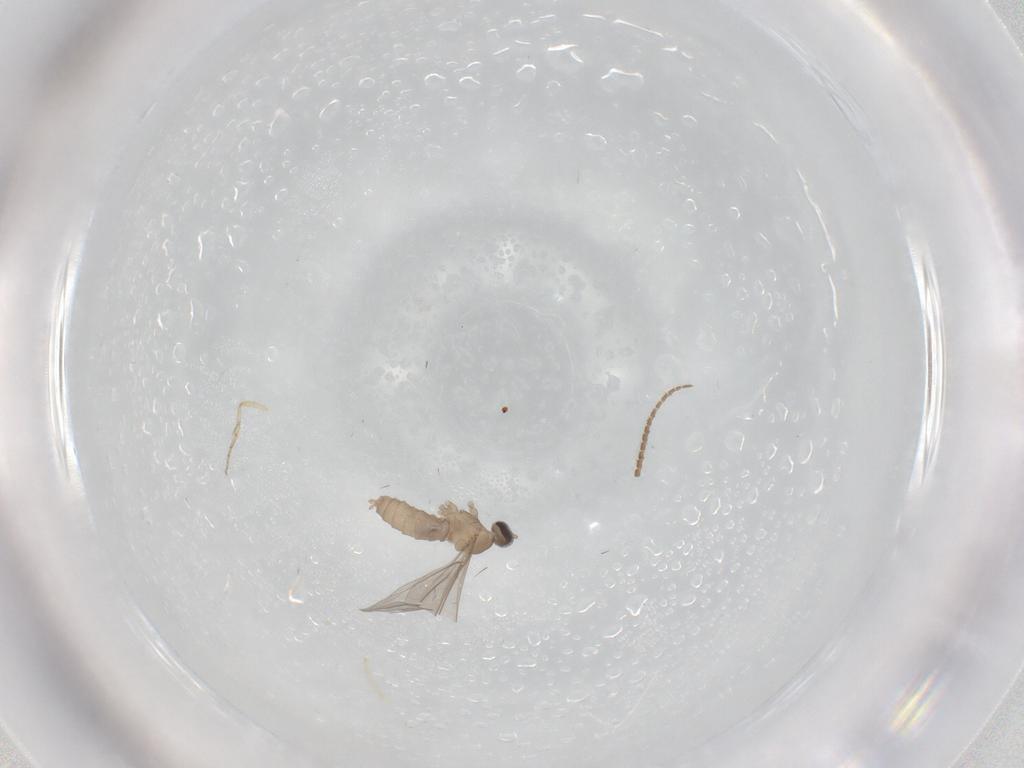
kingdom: Animalia
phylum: Arthropoda
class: Insecta
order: Diptera
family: Cecidomyiidae
